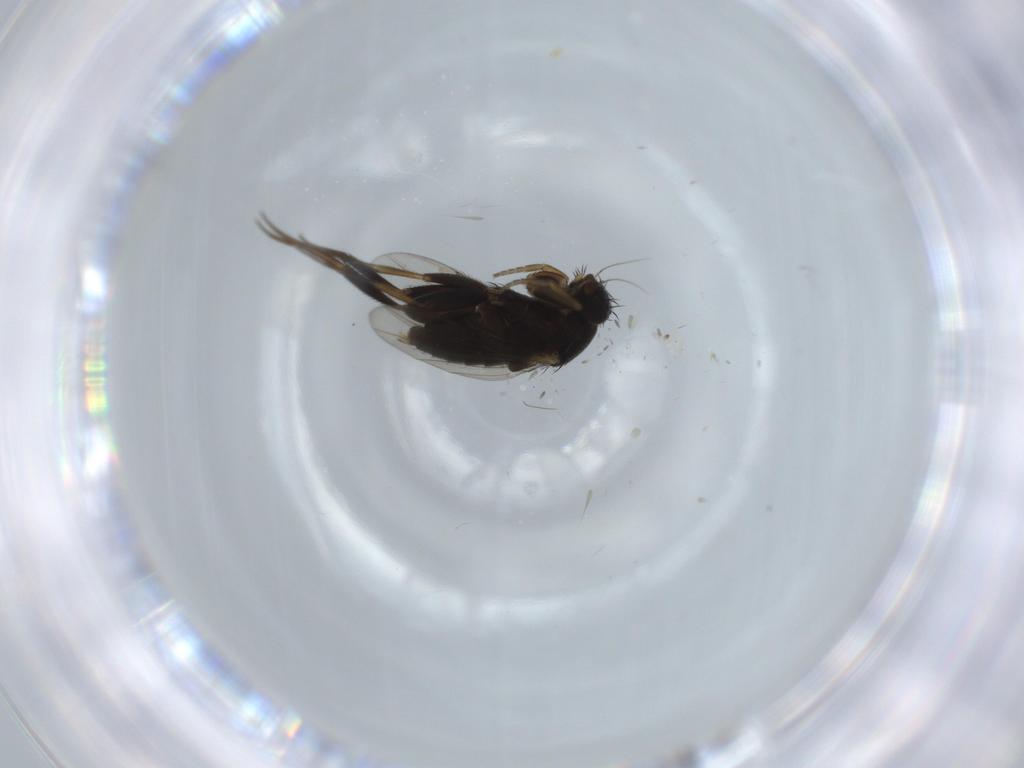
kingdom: Animalia
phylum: Arthropoda
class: Insecta
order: Diptera
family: Phoridae
